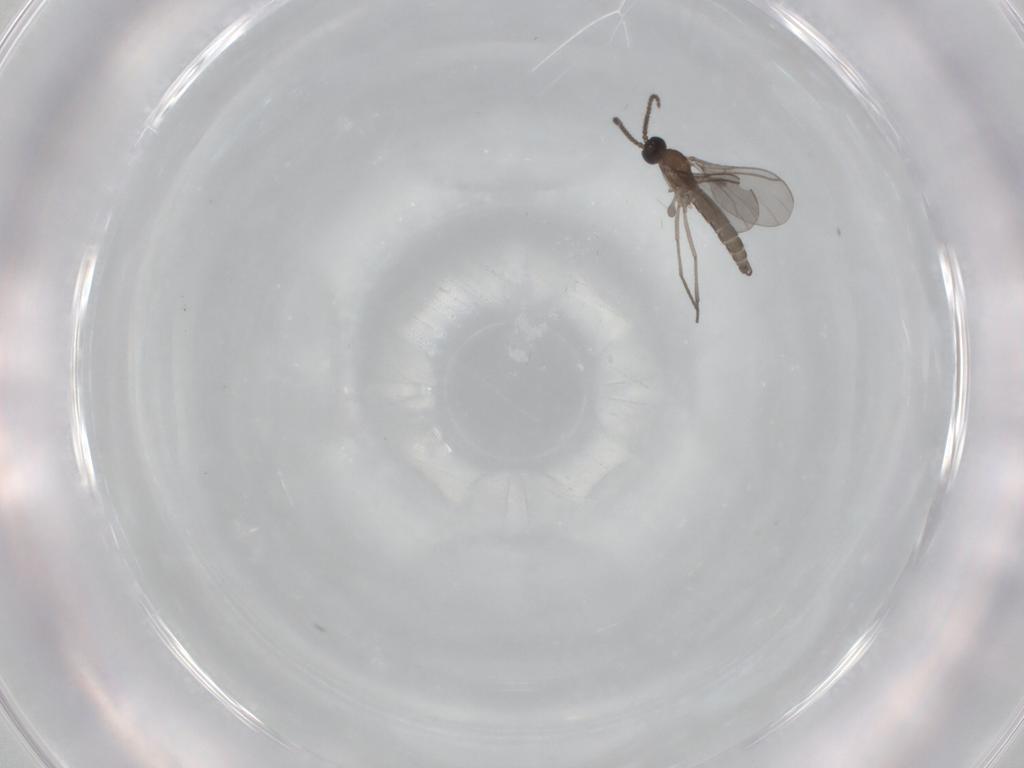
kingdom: Animalia
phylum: Arthropoda
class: Insecta
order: Diptera
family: Sciaridae
